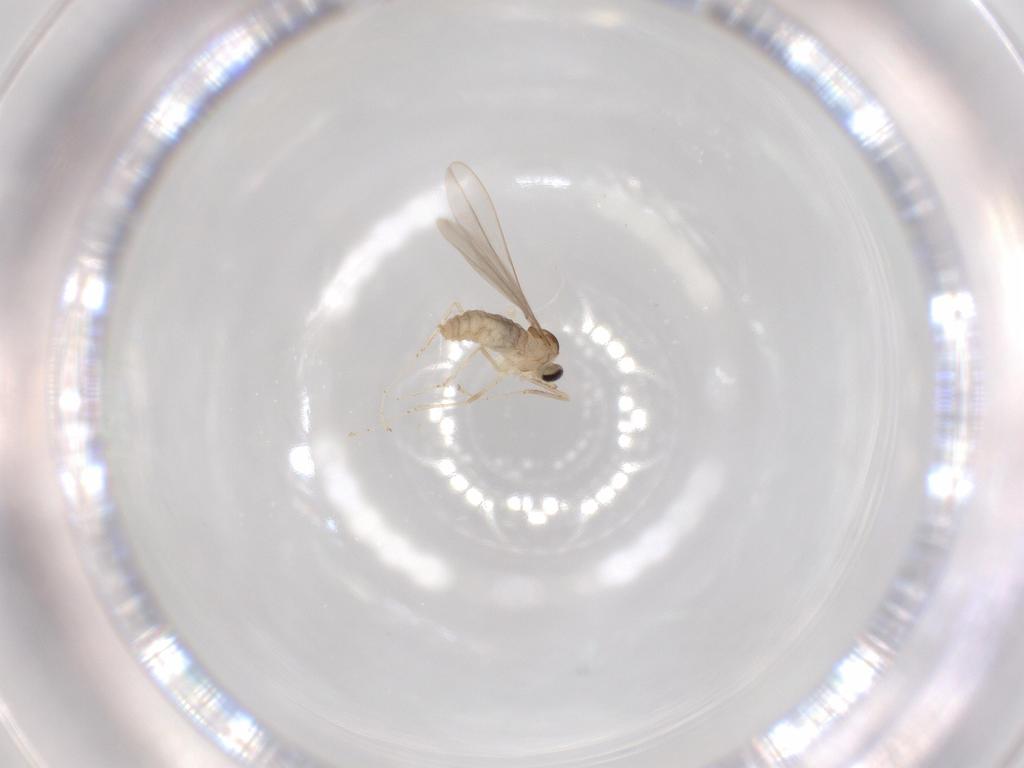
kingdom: Animalia
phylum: Arthropoda
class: Insecta
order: Diptera
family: Cecidomyiidae
